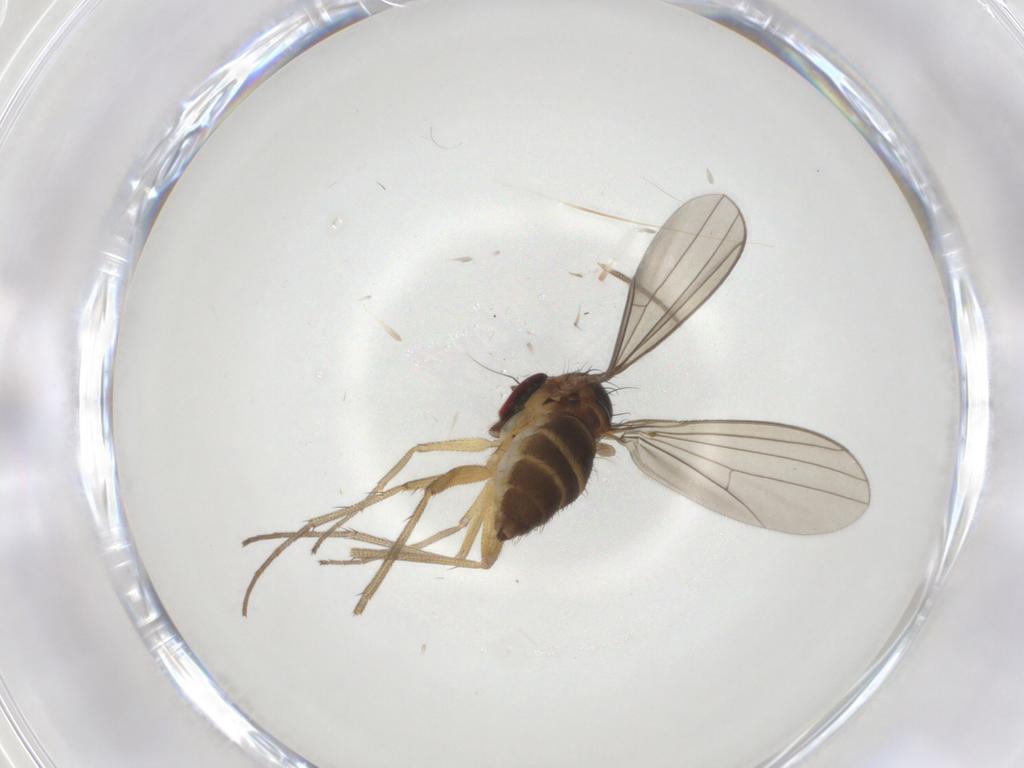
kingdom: Animalia
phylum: Arthropoda
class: Insecta
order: Diptera
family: Dolichopodidae
